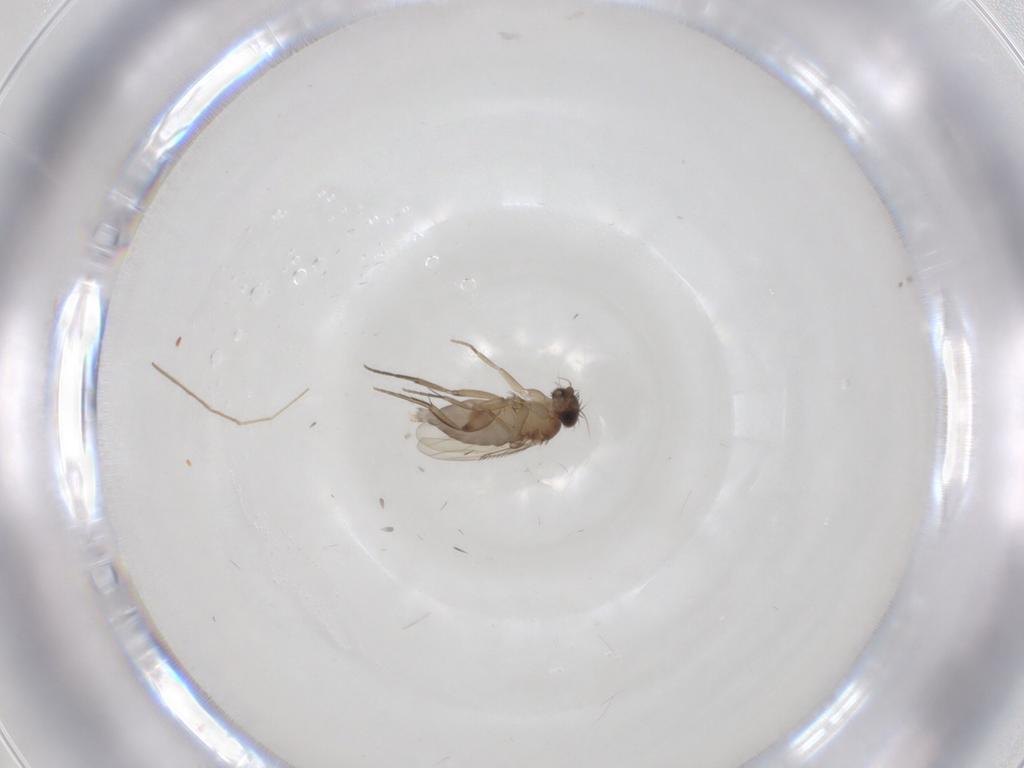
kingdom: Animalia
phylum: Arthropoda
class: Insecta
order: Diptera
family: Phoridae
